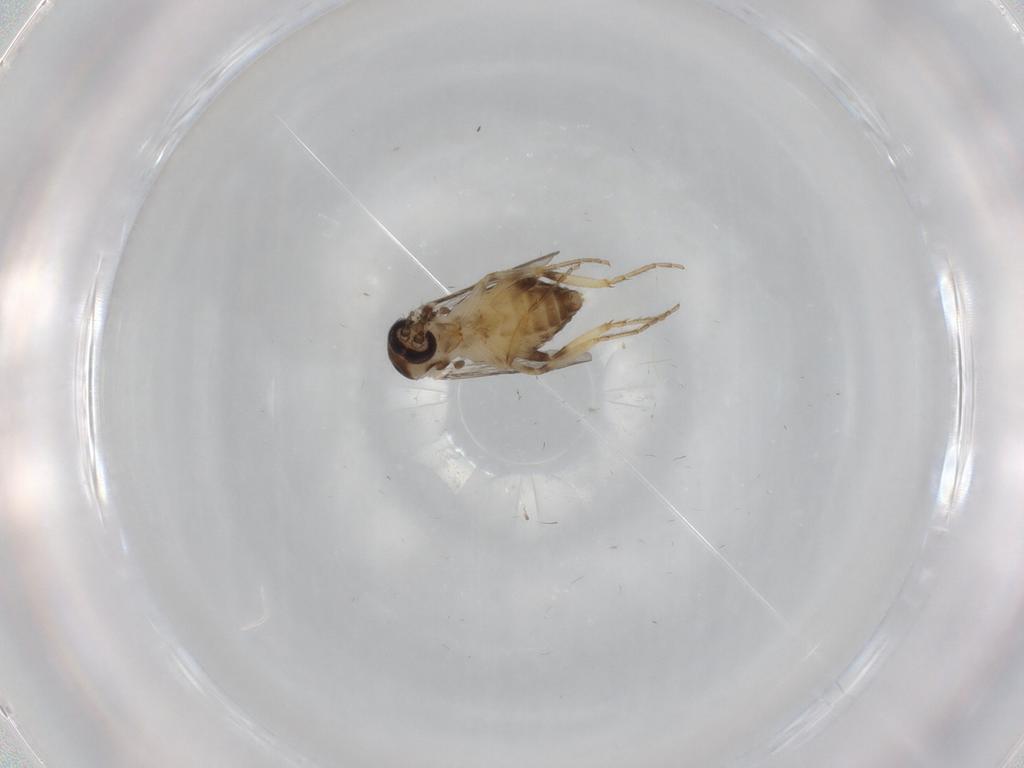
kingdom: Animalia
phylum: Arthropoda
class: Insecta
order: Diptera
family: Ceratopogonidae
